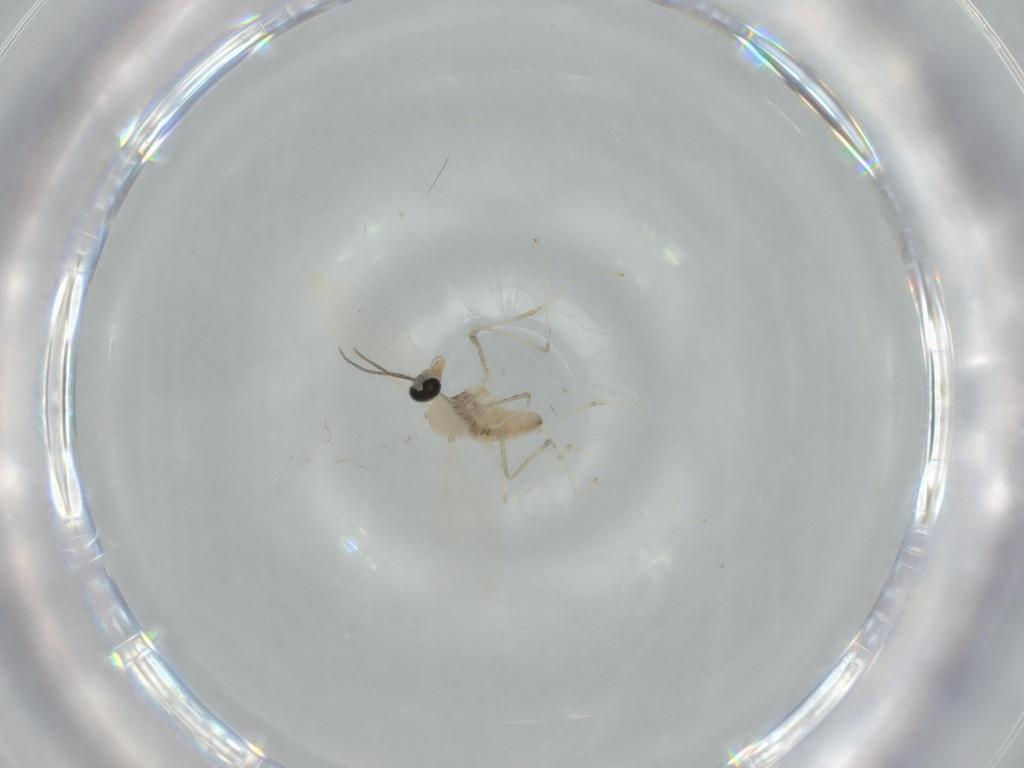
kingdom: Animalia
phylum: Arthropoda
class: Insecta
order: Diptera
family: Cecidomyiidae
